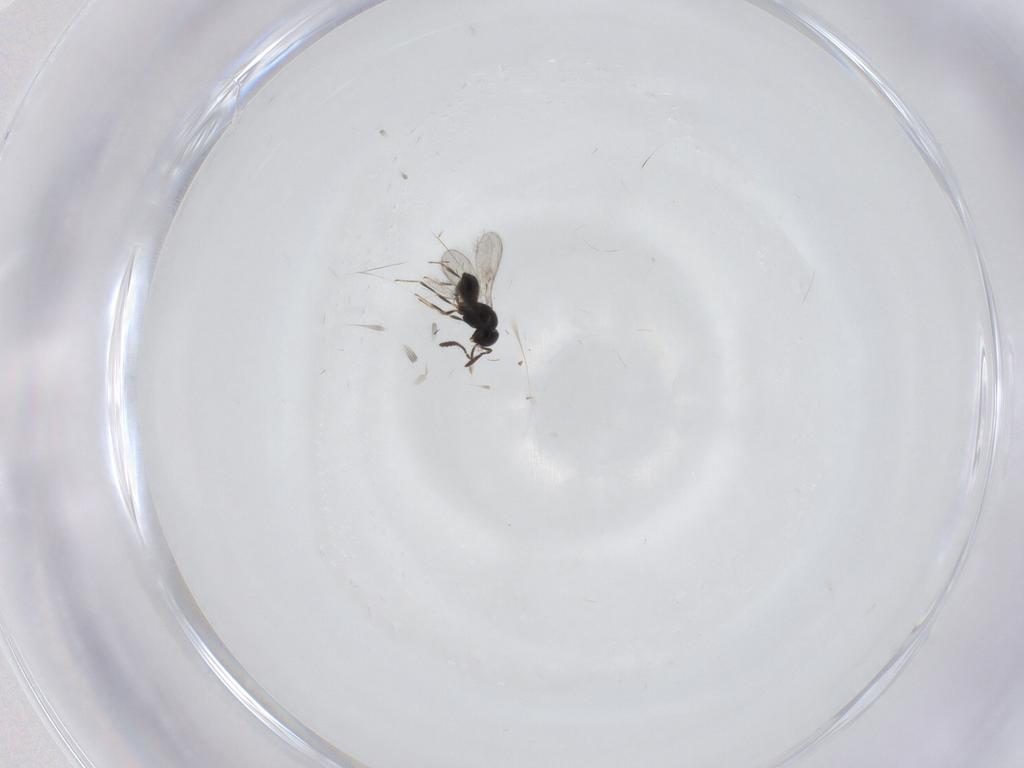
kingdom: Animalia
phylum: Arthropoda
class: Insecta
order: Hymenoptera
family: Scelionidae
